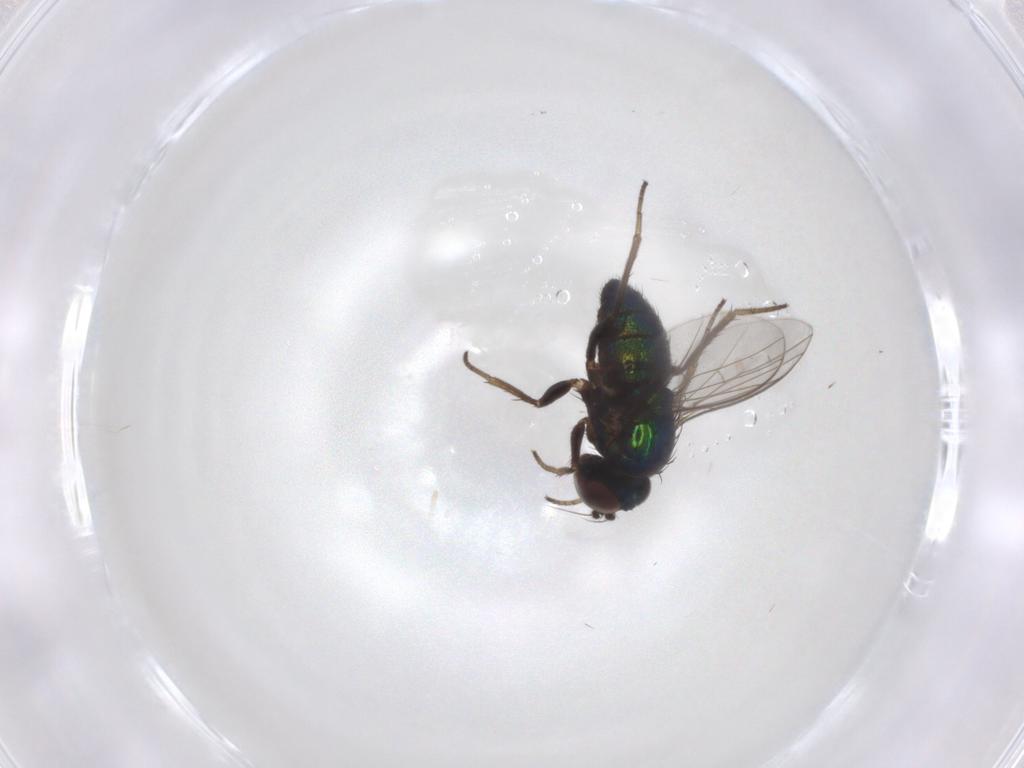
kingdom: Animalia
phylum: Arthropoda
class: Insecta
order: Diptera
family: Dolichopodidae
